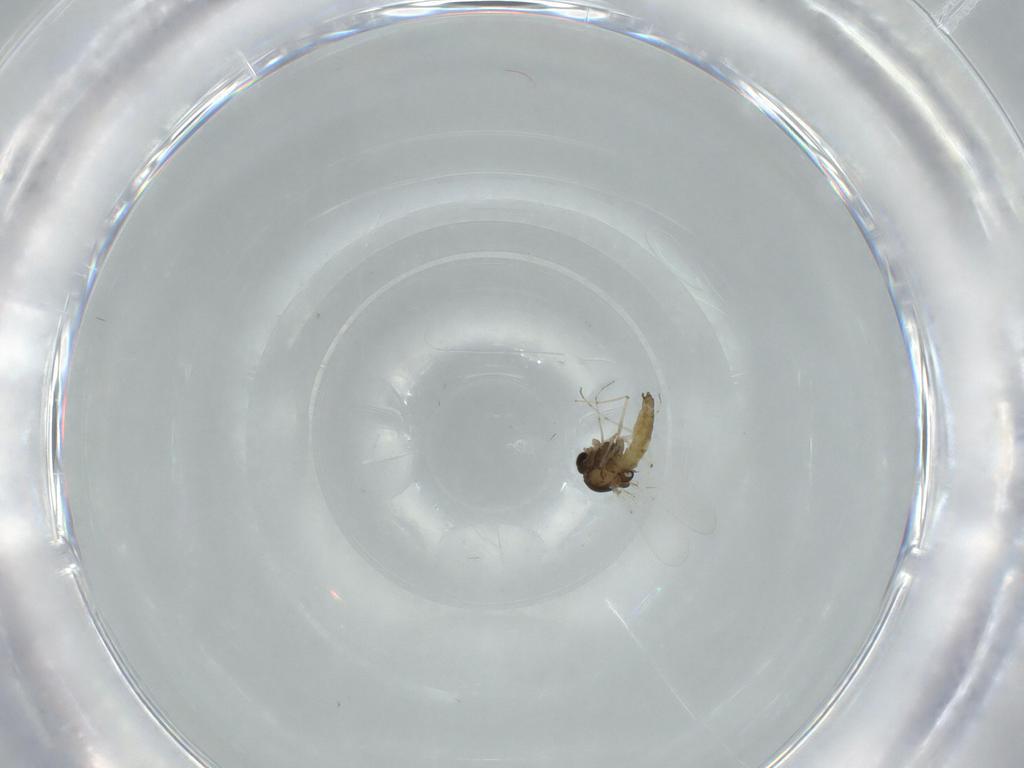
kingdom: Animalia
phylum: Arthropoda
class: Insecta
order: Diptera
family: Chironomidae
